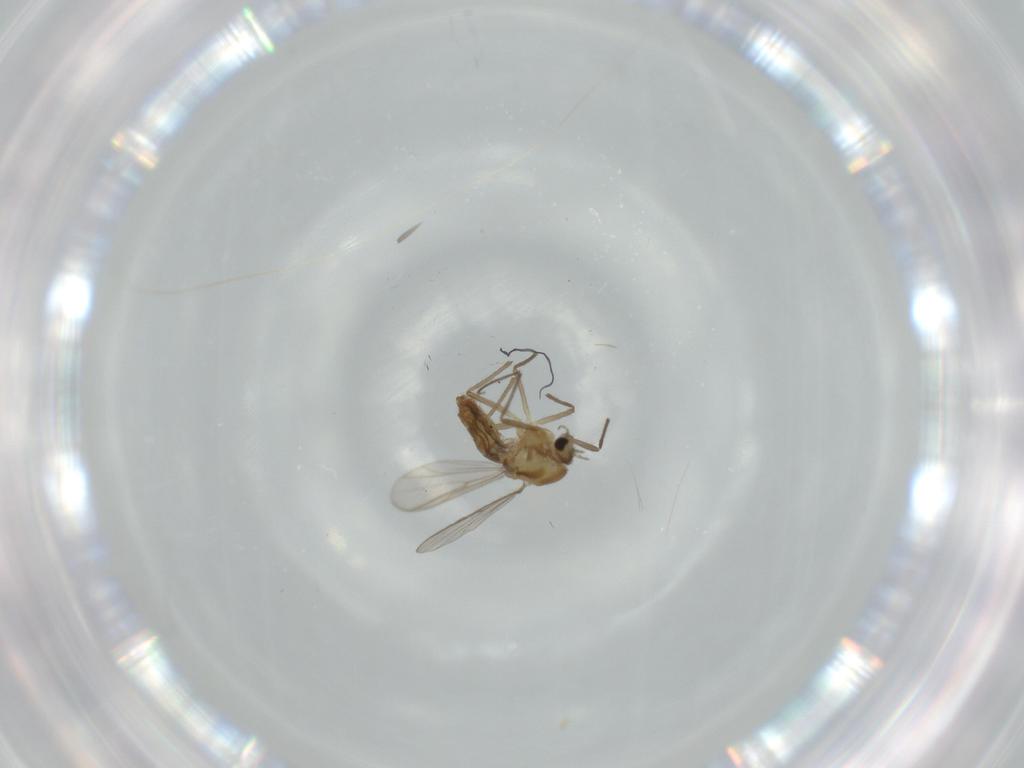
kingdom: Animalia
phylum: Arthropoda
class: Insecta
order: Diptera
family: Chironomidae
